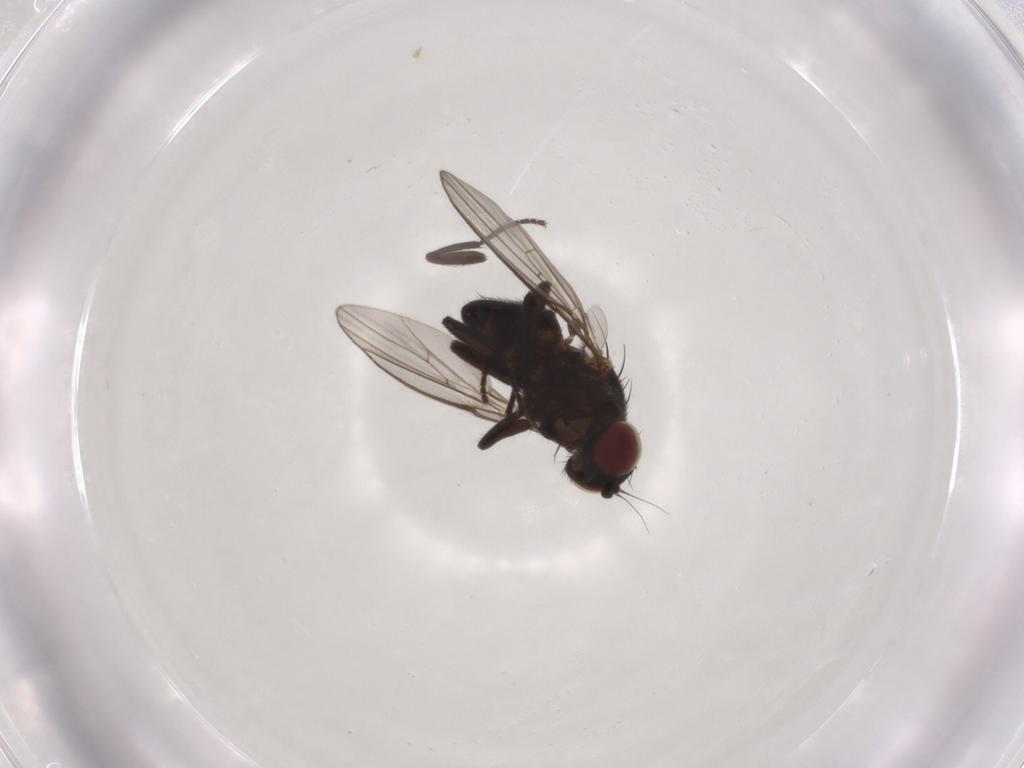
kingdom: Animalia
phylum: Arthropoda
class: Insecta
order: Diptera
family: Agromyzidae
